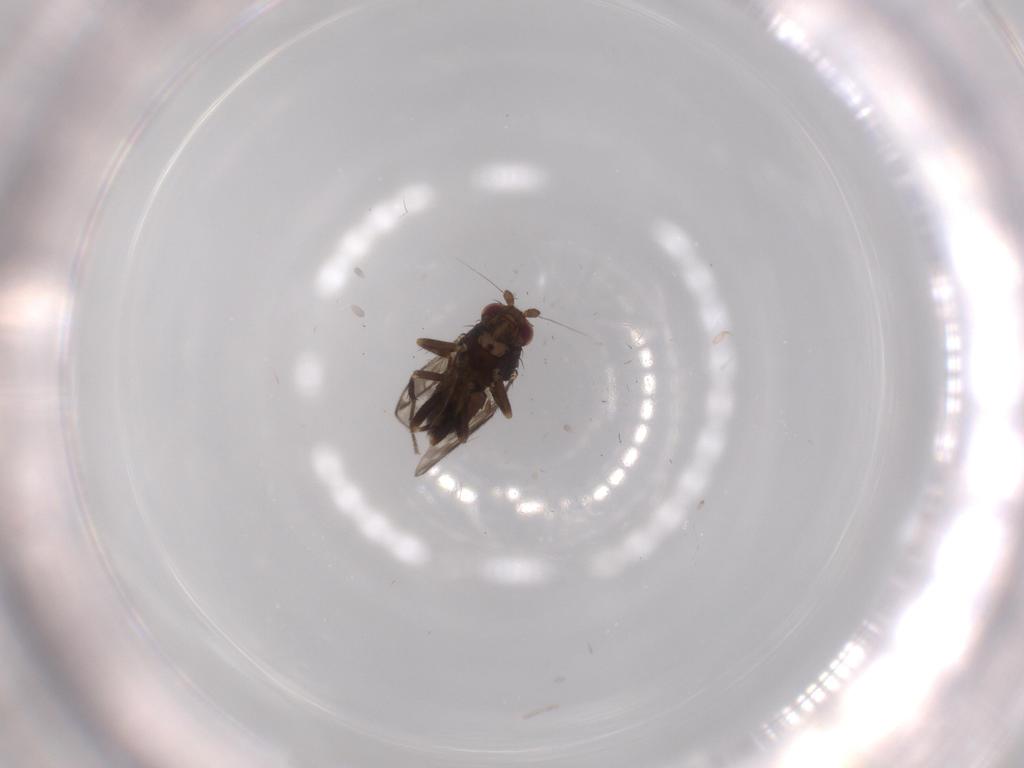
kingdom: Animalia
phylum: Arthropoda
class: Insecta
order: Diptera
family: Sphaeroceridae
